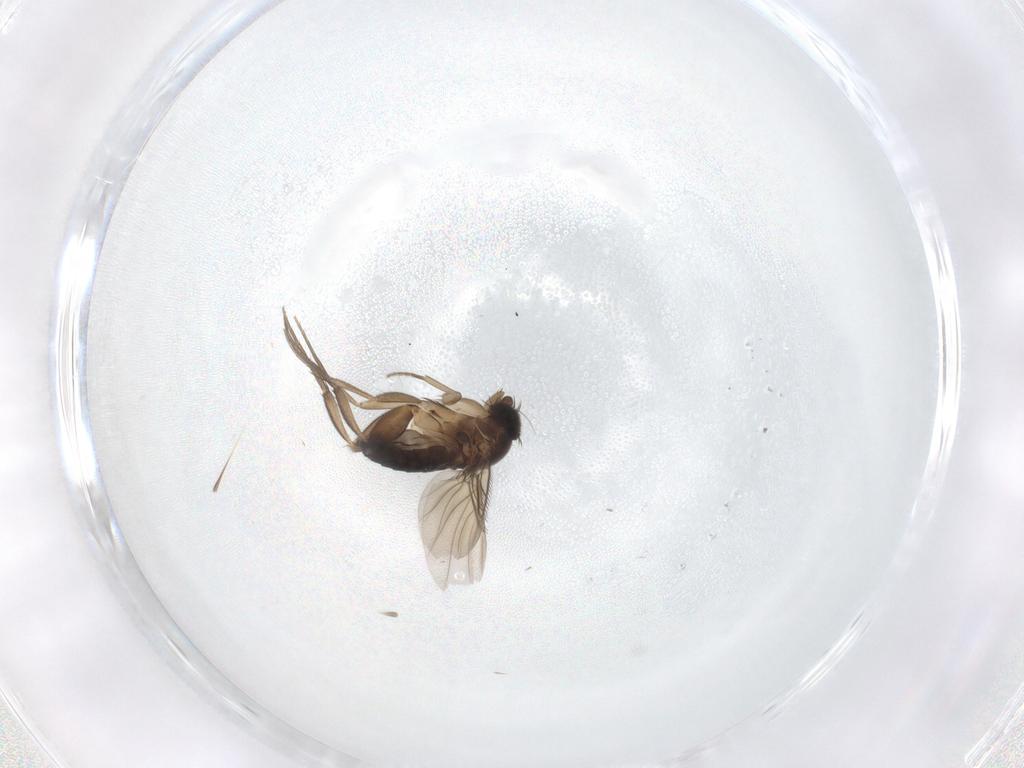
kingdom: Animalia
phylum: Arthropoda
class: Insecta
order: Diptera
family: Phoridae
